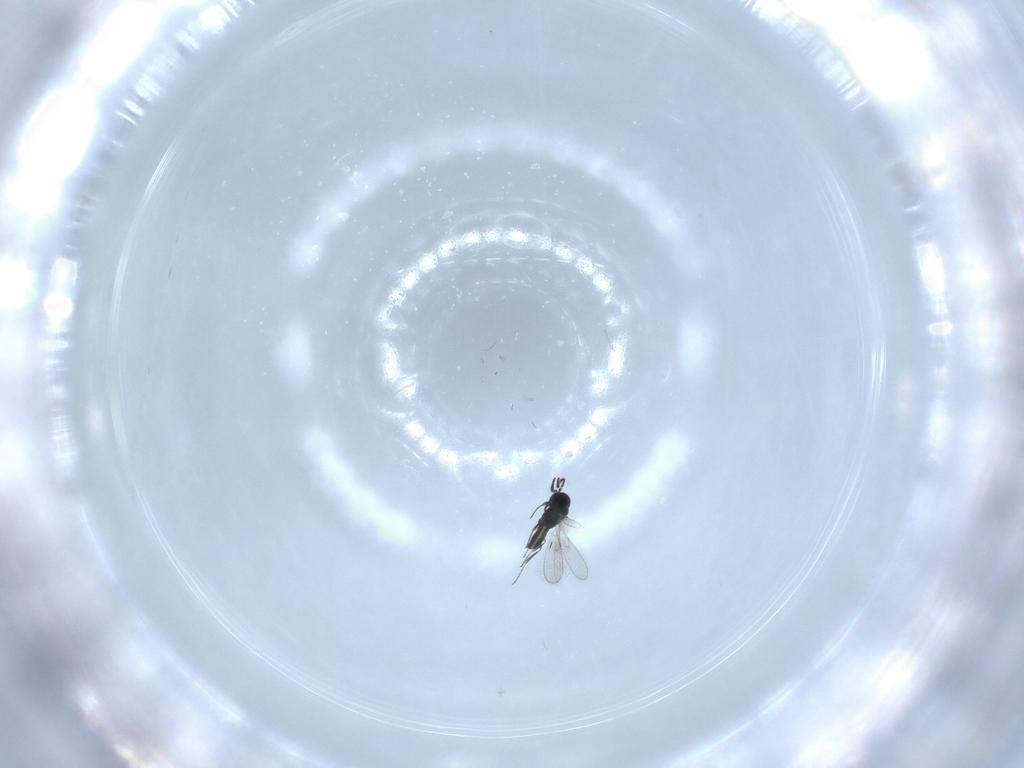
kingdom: Animalia
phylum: Arthropoda
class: Insecta
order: Hymenoptera
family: Scelionidae
